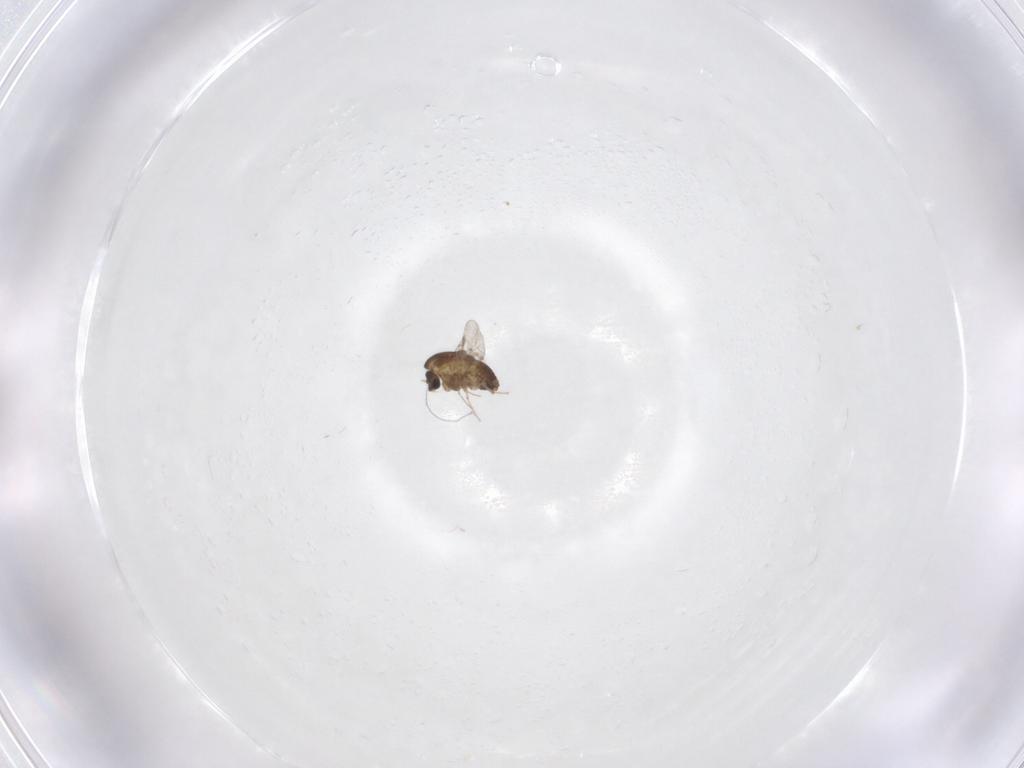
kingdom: Animalia
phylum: Arthropoda
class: Insecta
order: Diptera
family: Chironomidae
